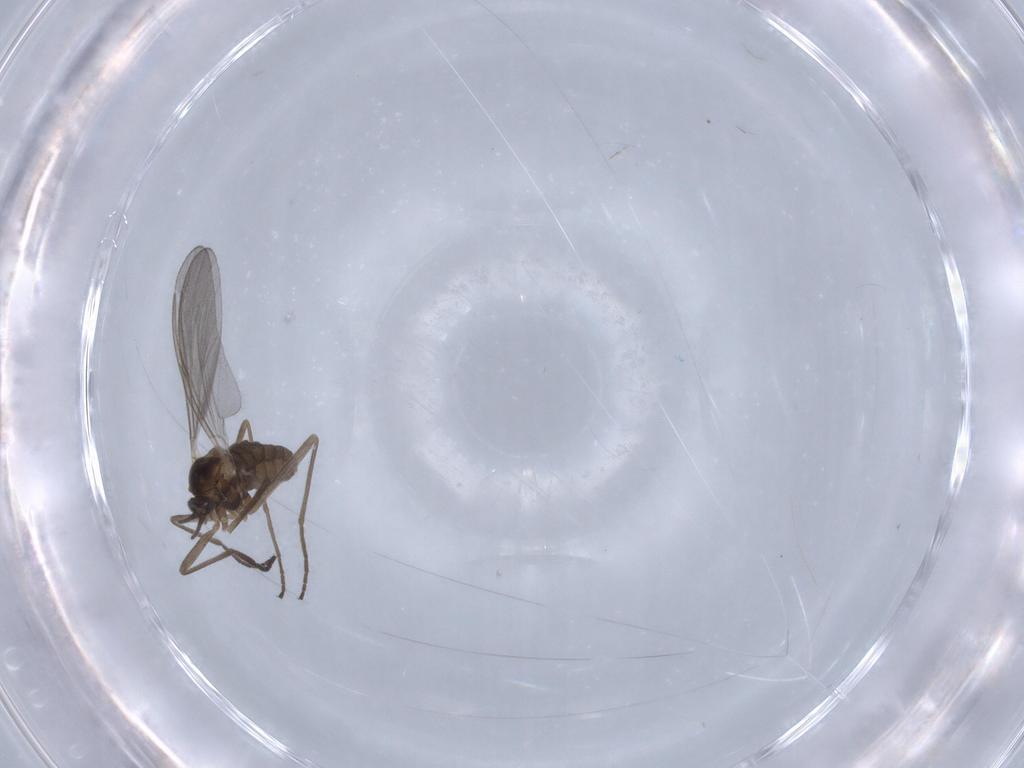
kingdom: Animalia
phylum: Arthropoda
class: Insecta
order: Diptera
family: Cecidomyiidae
